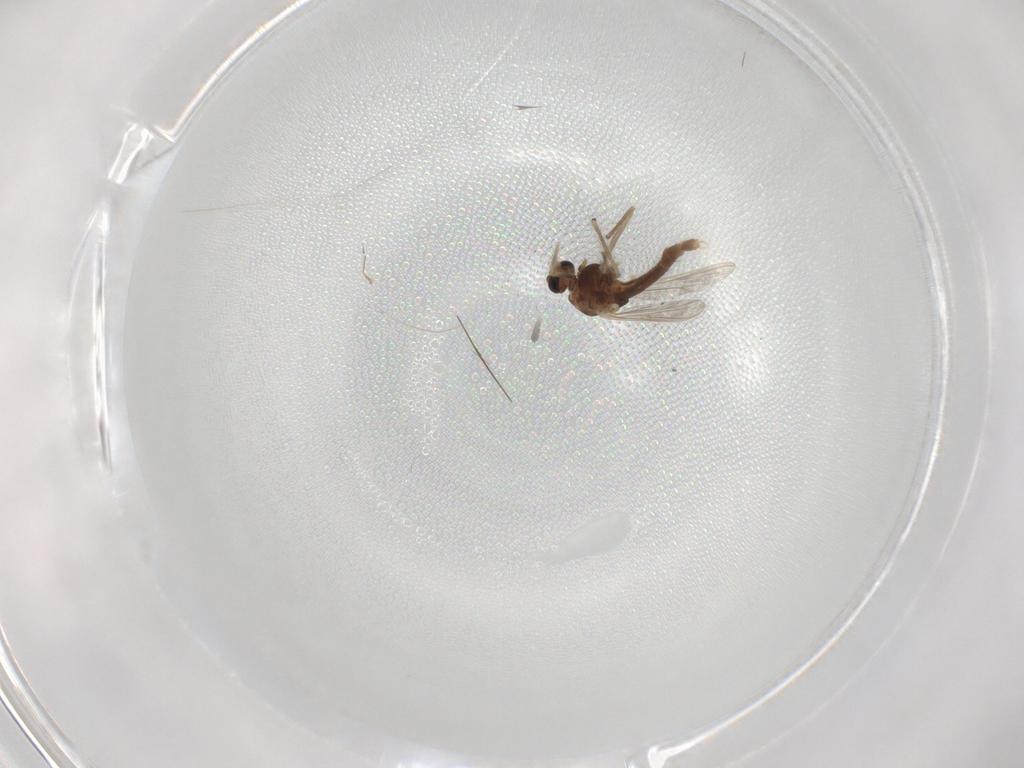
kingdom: Animalia
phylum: Arthropoda
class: Insecta
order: Diptera
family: Chironomidae
